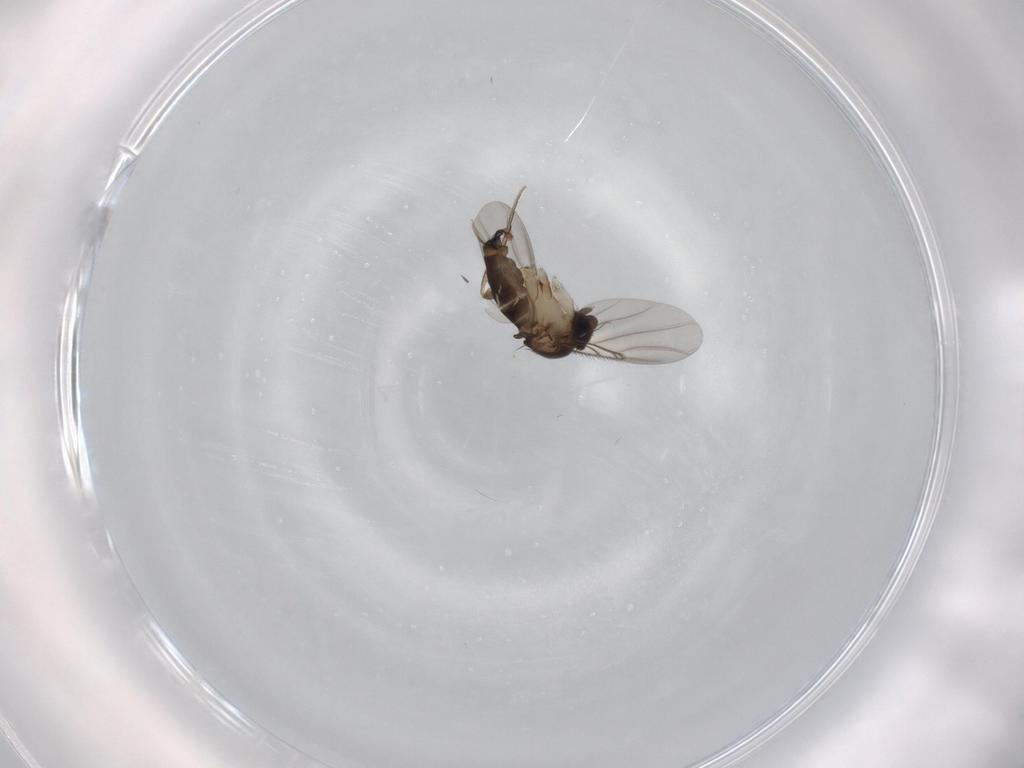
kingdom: Animalia
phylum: Arthropoda
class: Insecta
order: Diptera
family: Phoridae
